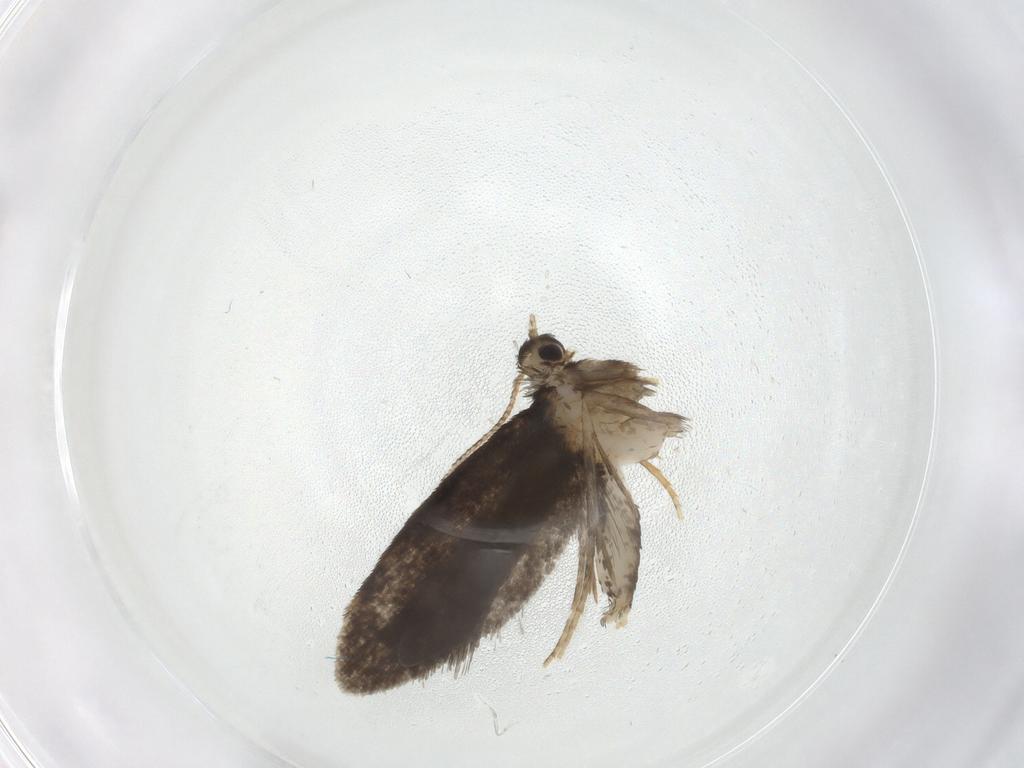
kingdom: Animalia
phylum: Arthropoda
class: Insecta
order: Lepidoptera
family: Psychidae
